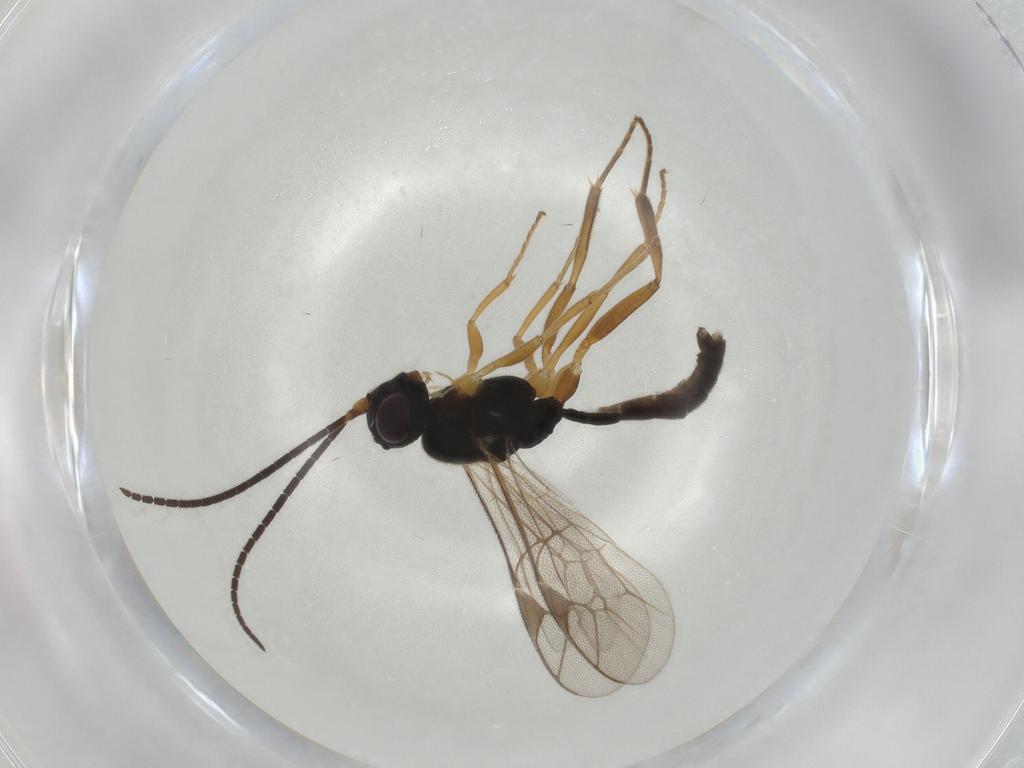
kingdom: Animalia
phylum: Arthropoda
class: Insecta
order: Hymenoptera
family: Ichneumonidae
